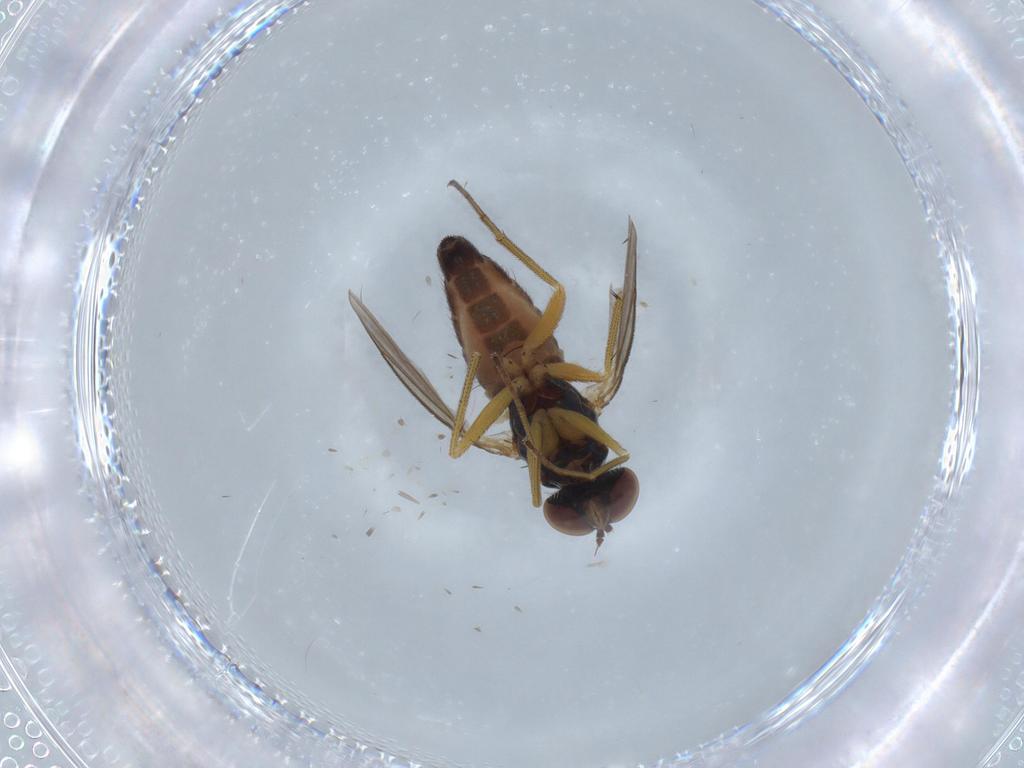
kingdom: Animalia
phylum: Arthropoda
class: Insecta
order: Diptera
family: Dolichopodidae
